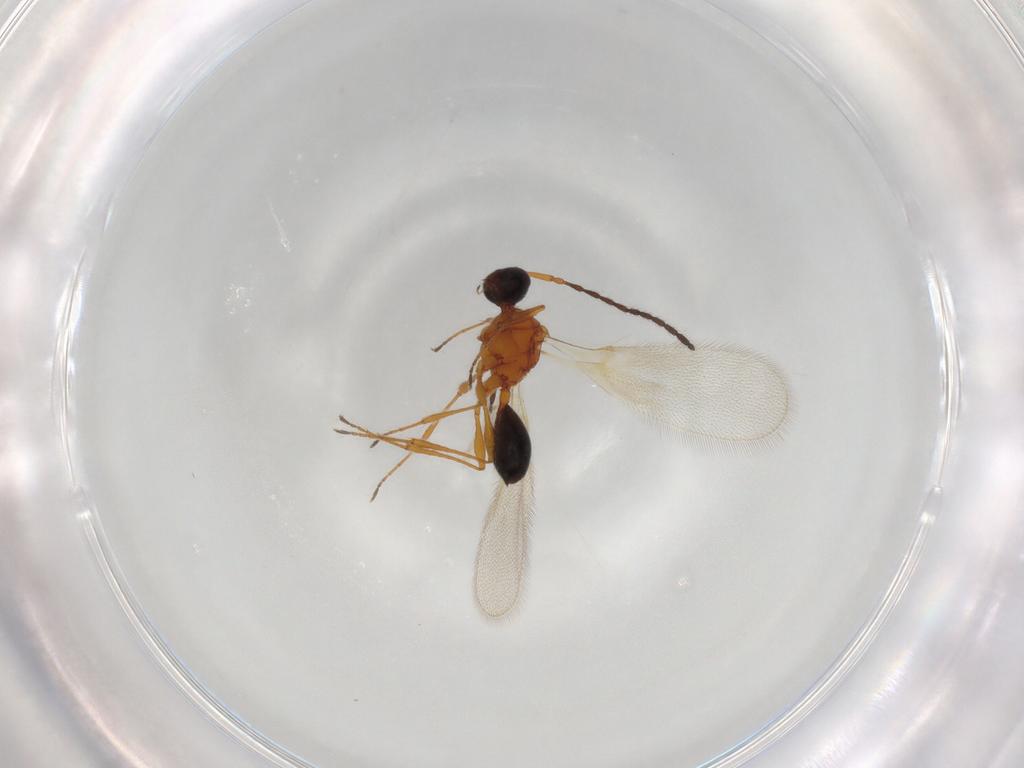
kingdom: Animalia
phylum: Arthropoda
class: Insecta
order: Hymenoptera
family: Diapriidae
